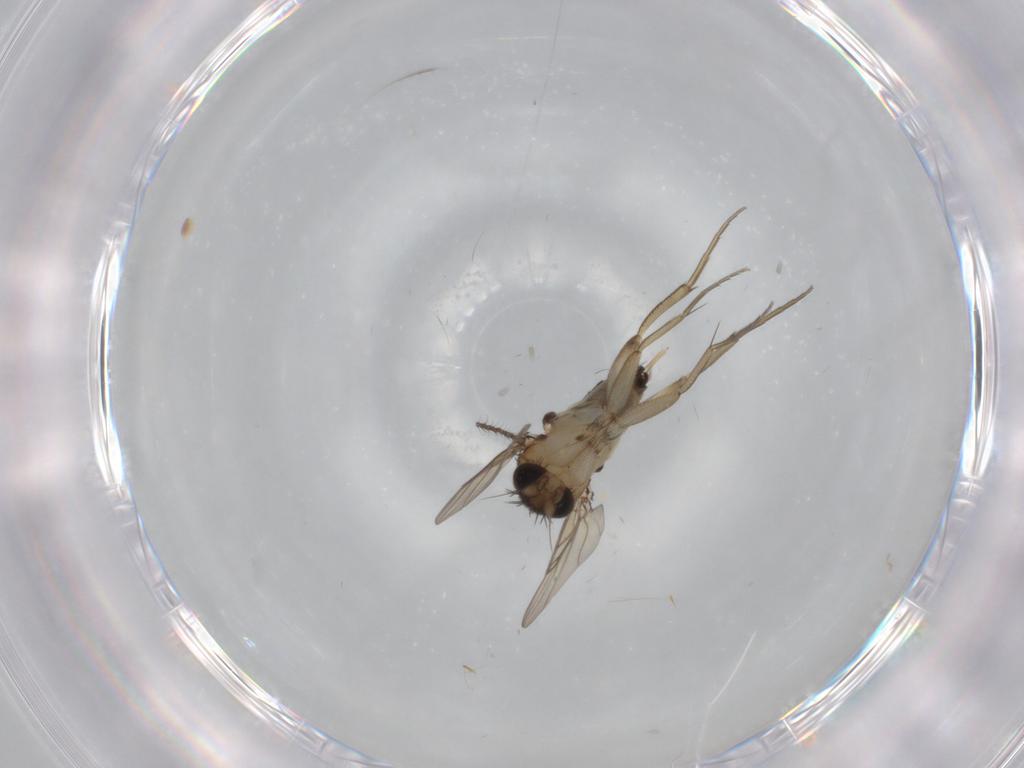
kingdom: Animalia
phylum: Arthropoda
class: Insecta
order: Diptera
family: Phoridae
